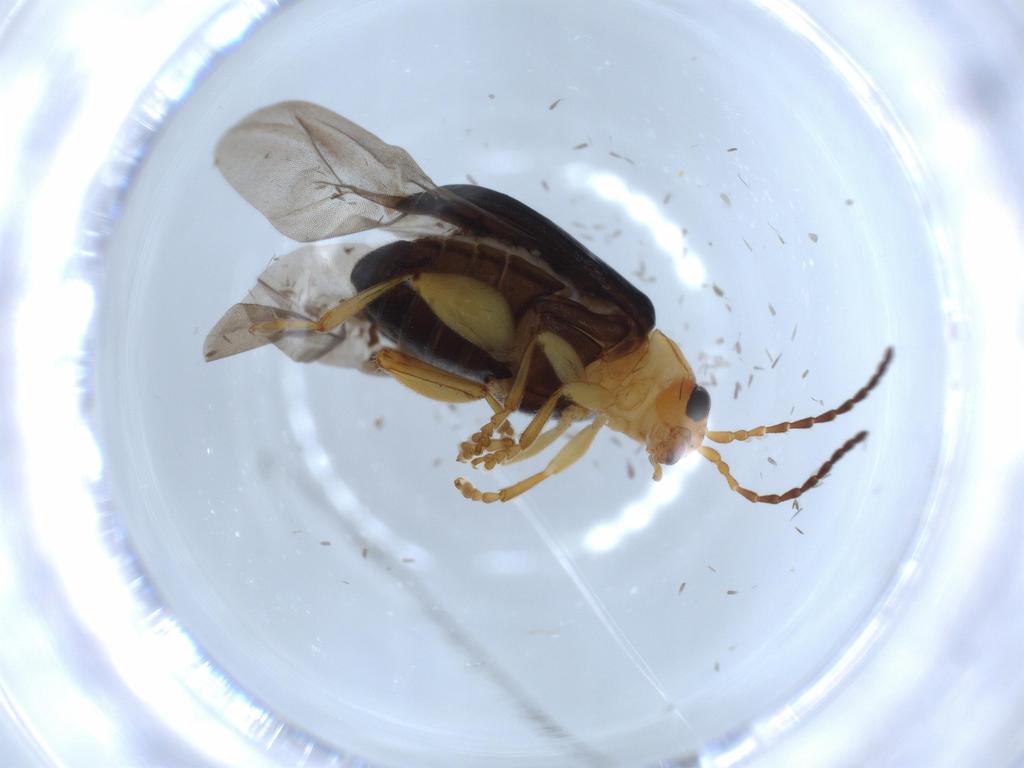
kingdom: Animalia
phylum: Arthropoda
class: Insecta
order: Coleoptera
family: Chrysomelidae
